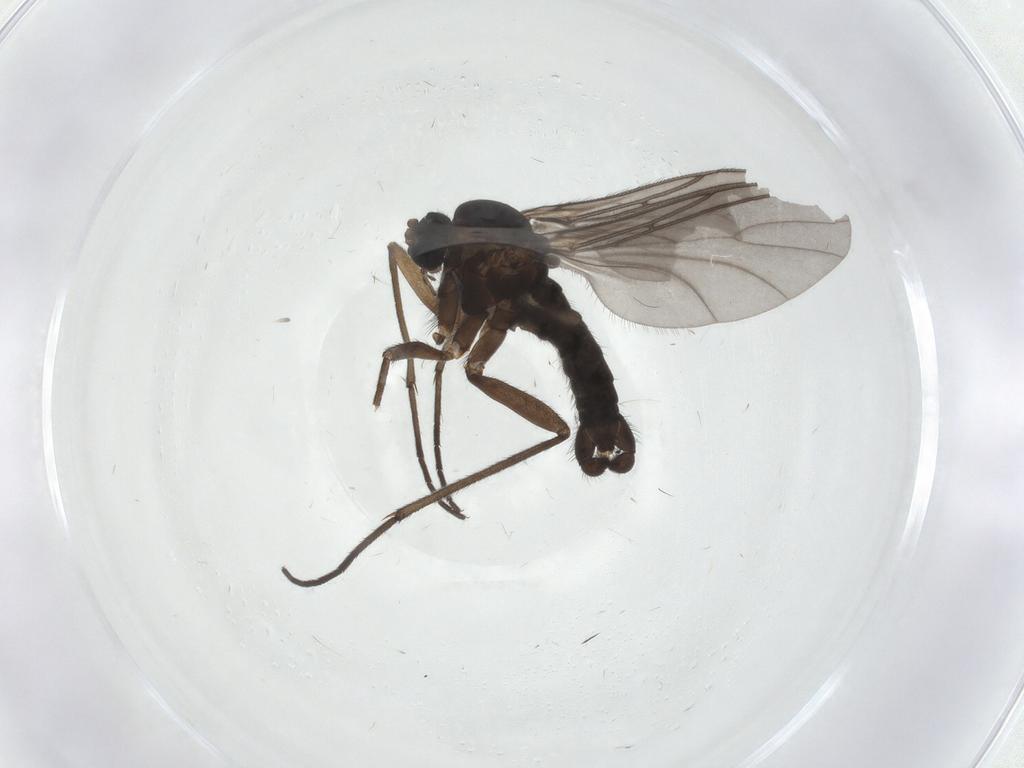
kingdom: Animalia
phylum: Arthropoda
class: Insecta
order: Diptera
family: Sciaridae
